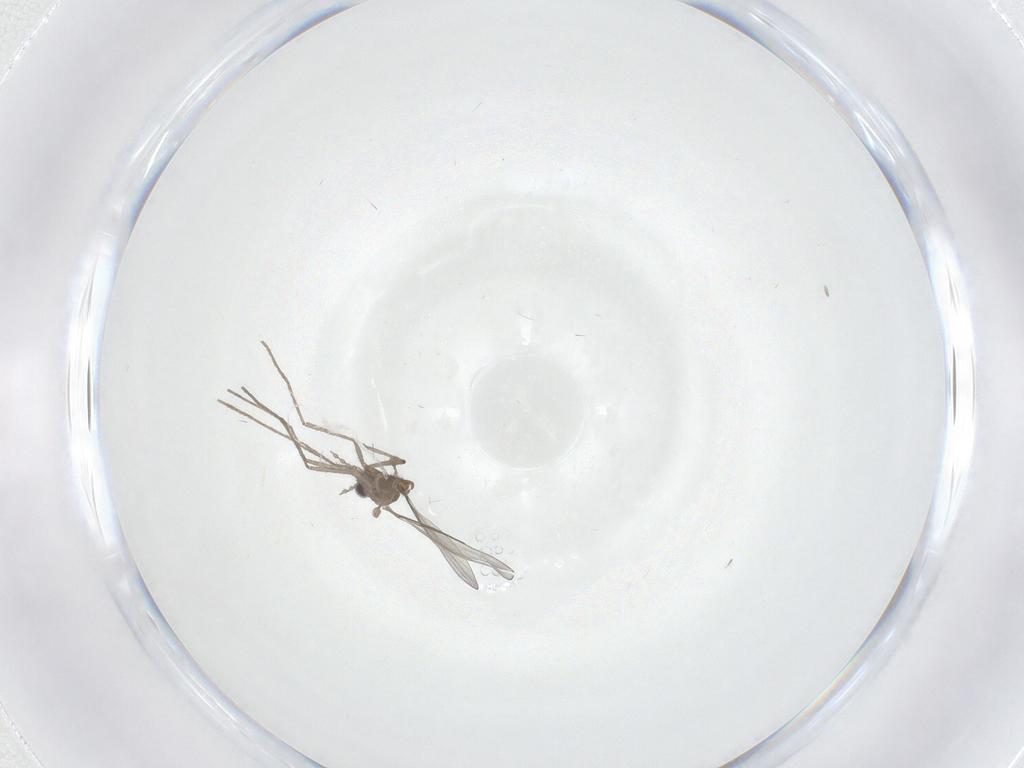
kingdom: Animalia
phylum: Arthropoda
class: Insecta
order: Diptera
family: Cecidomyiidae
